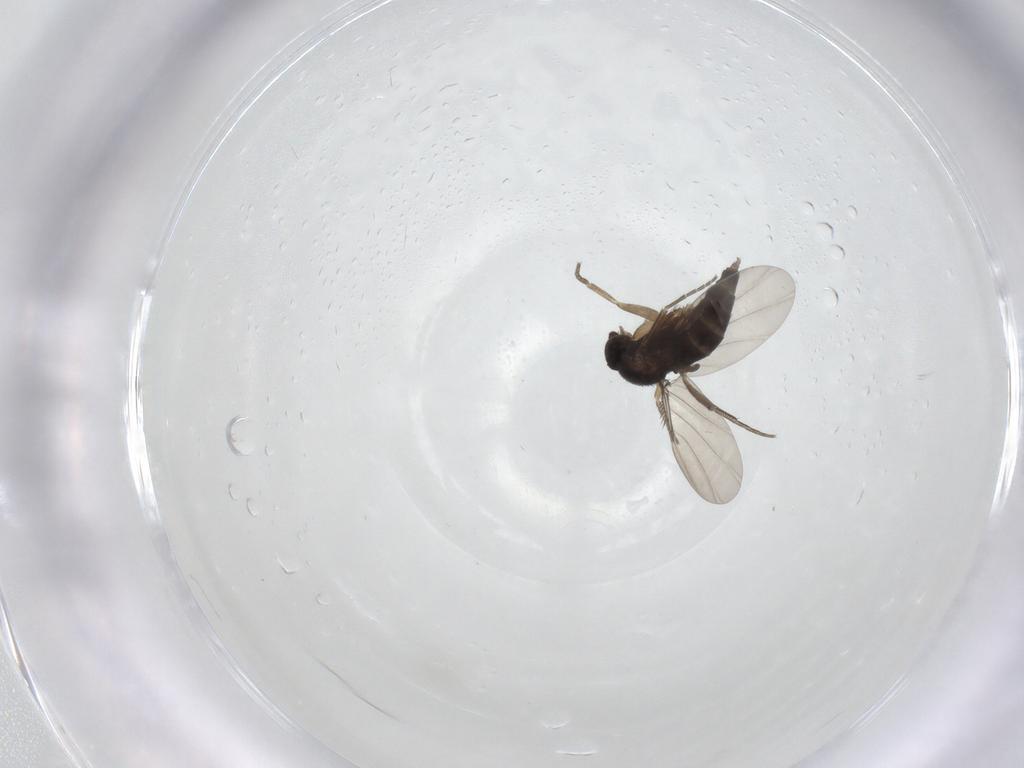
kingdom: Animalia
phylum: Arthropoda
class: Insecta
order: Diptera
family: Phoridae
